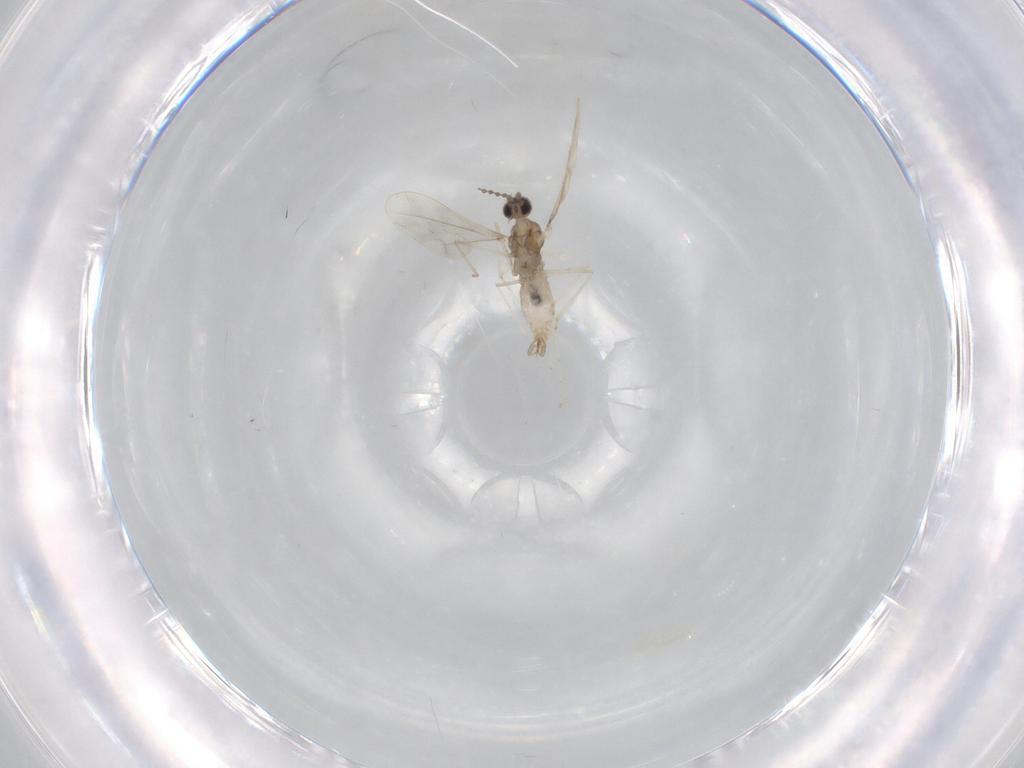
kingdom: Animalia
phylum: Arthropoda
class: Insecta
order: Diptera
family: Cecidomyiidae
